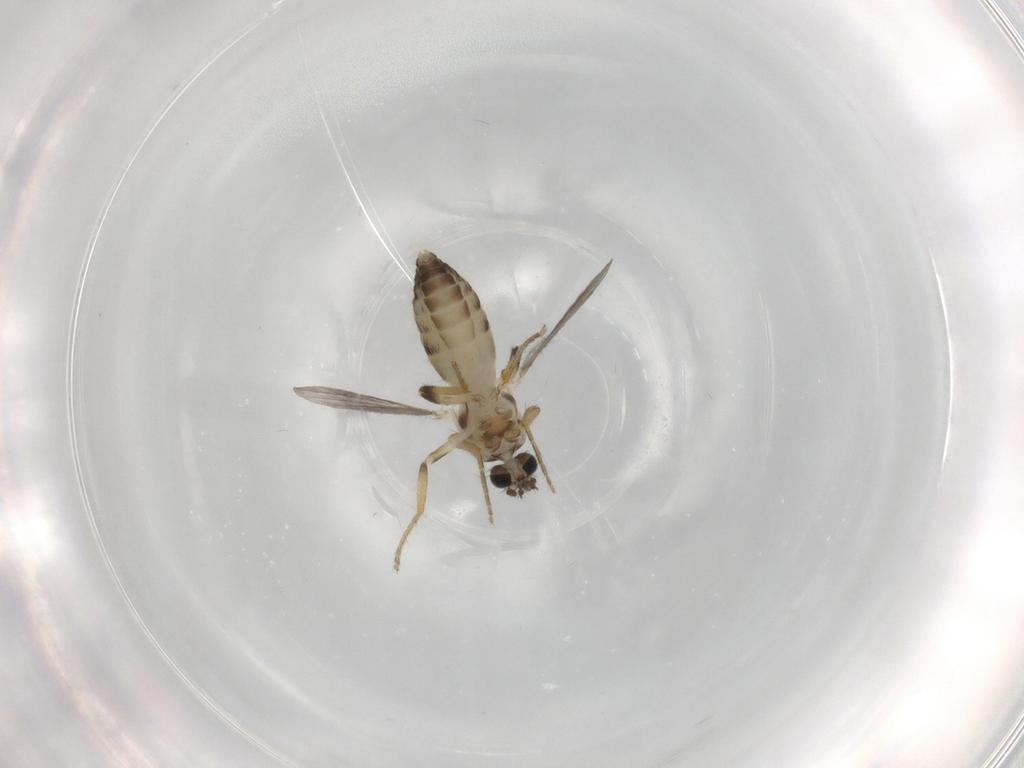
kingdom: Animalia
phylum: Arthropoda
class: Insecta
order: Diptera
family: Ceratopogonidae
